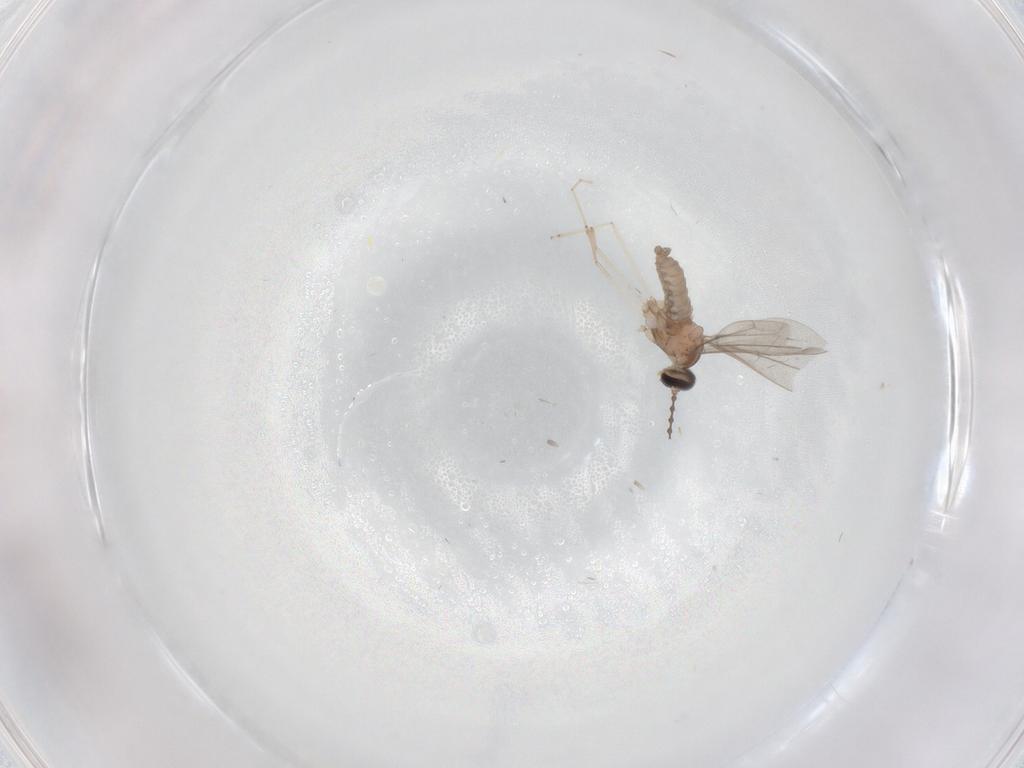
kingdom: Animalia
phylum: Arthropoda
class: Insecta
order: Diptera
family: Cecidomyiidae
